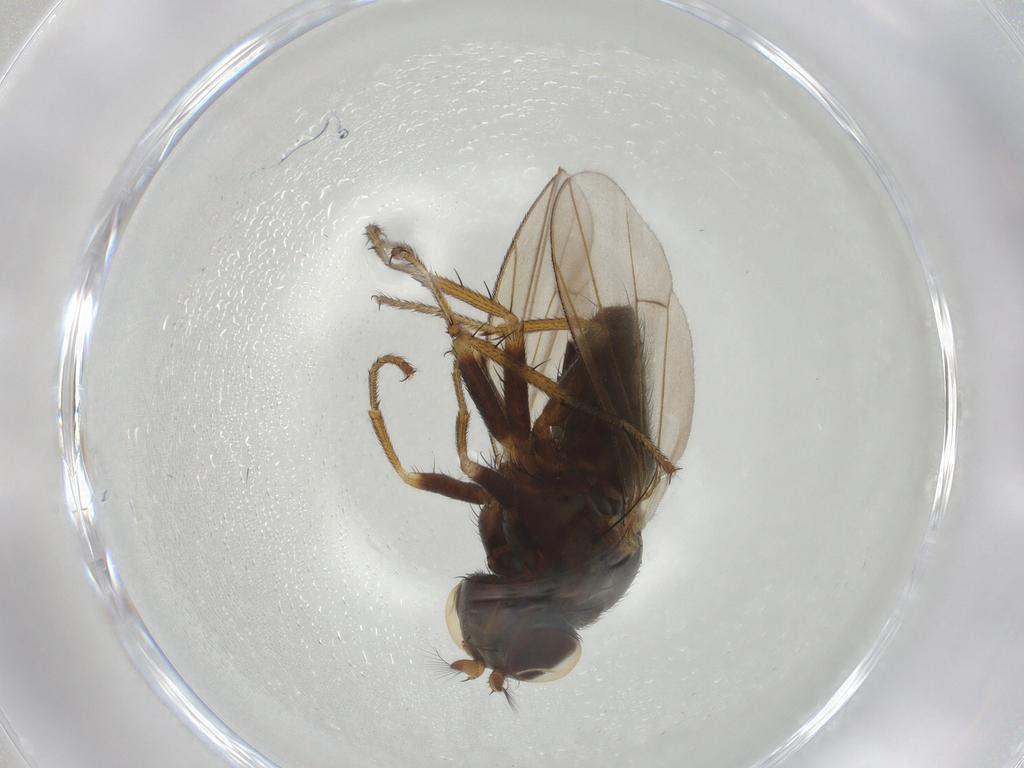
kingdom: Animalia
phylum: Arthropoda
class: Insecta
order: Diptera
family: Ephydridae
